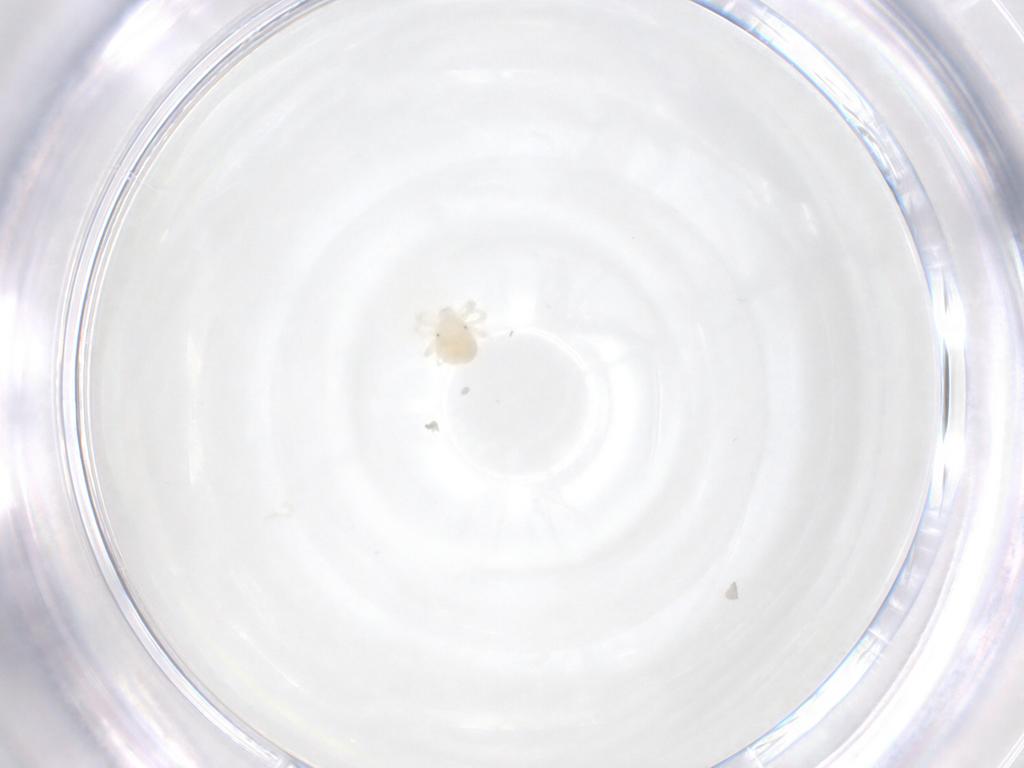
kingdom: Animalia
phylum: Arthropoda
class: Arachnida
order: Trombidiformes
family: Anystidae
